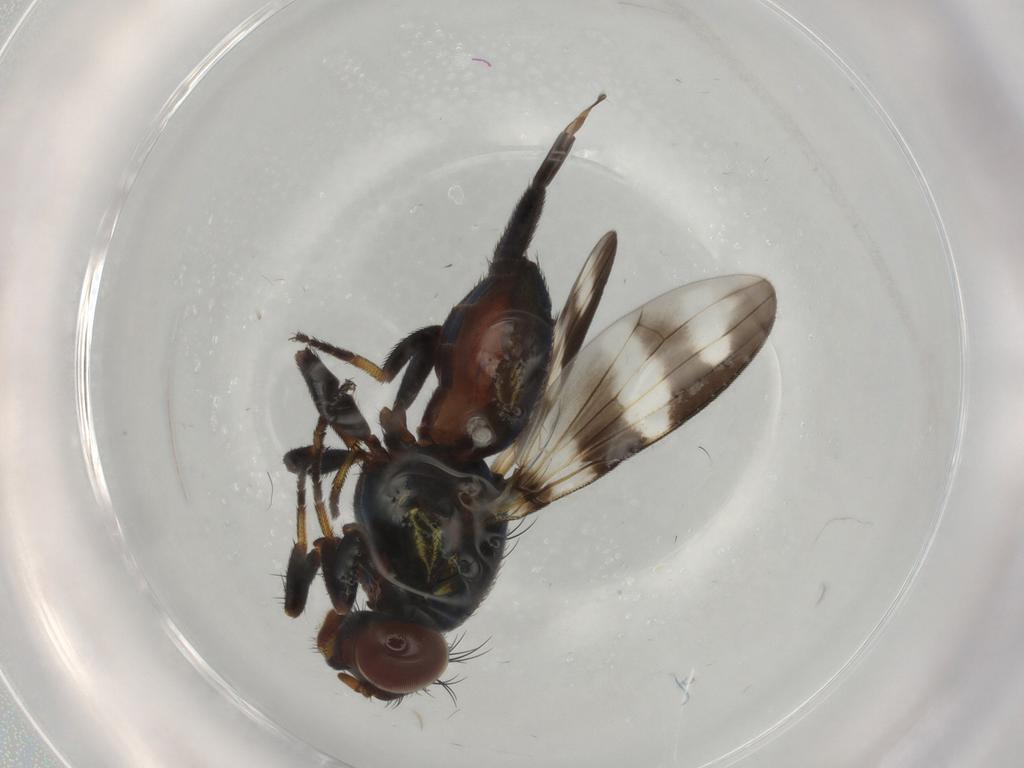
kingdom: Animalia
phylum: Arthropoda
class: Insecta
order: Diptera
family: Ulidiidae
